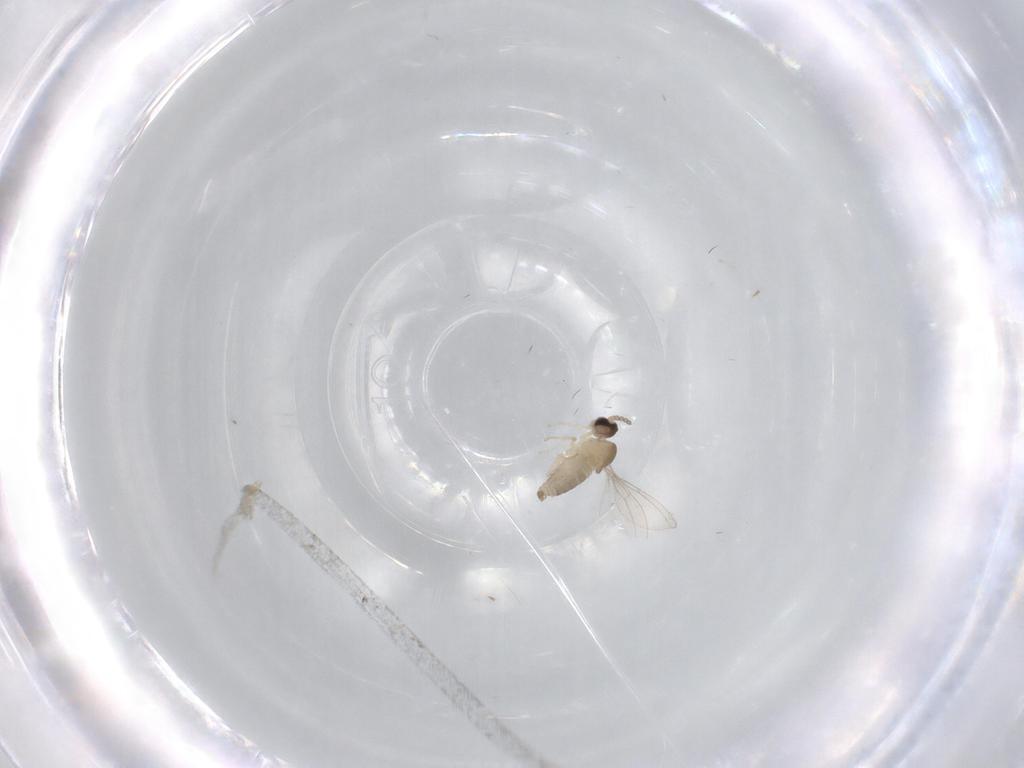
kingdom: Animalia
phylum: Arthropoda
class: Insecta
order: Diptera
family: Cecidomyiidae
